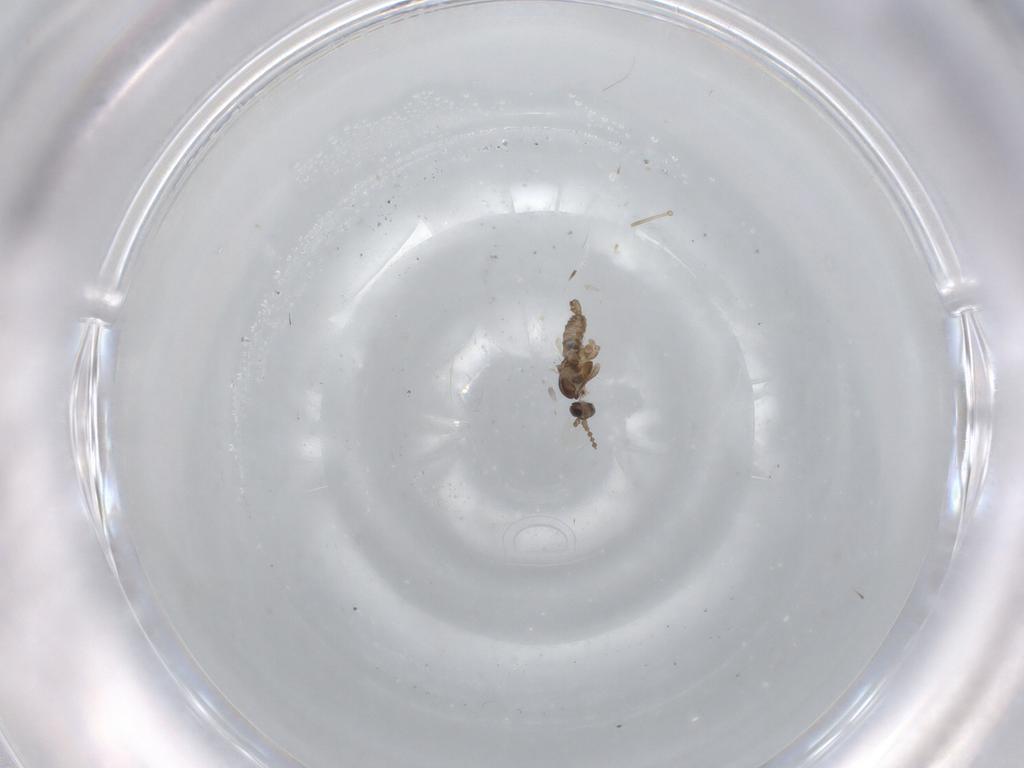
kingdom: Animalia
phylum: Arthropoda
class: Insecta
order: Diptera
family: Cecidomyiidae
